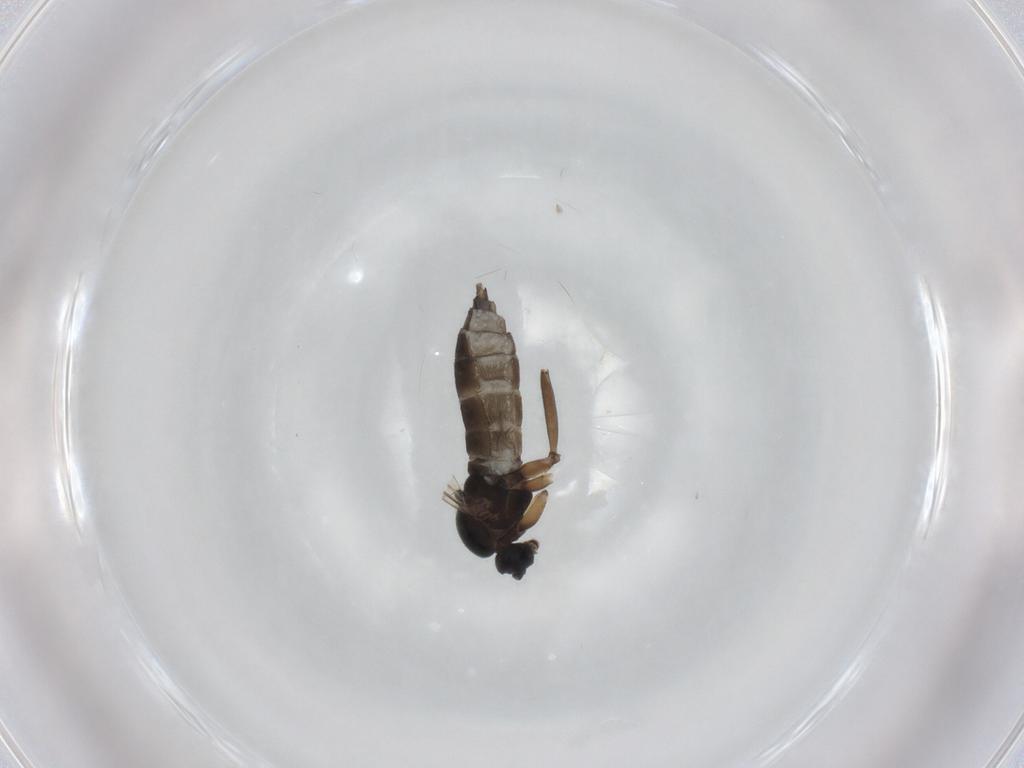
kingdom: Animalia
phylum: Arthropoda
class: Insecta
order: Diptera
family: Sciaridae
